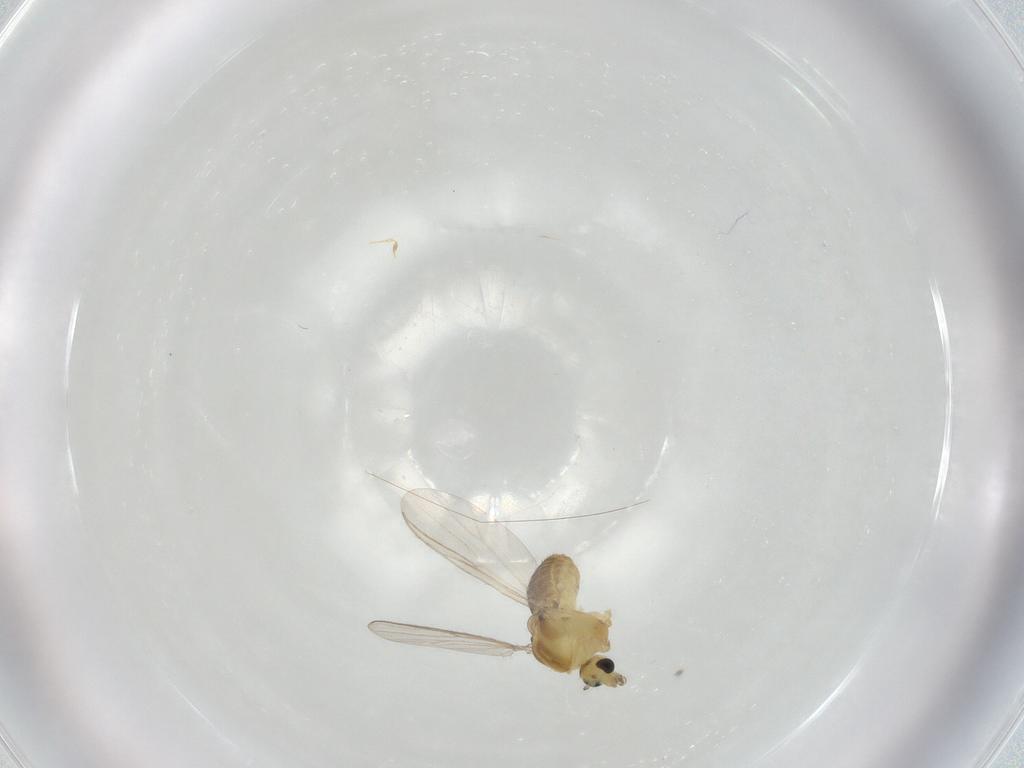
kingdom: Animalia
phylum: Arthropoda
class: Insecta
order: Diptera
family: Chironomidae
